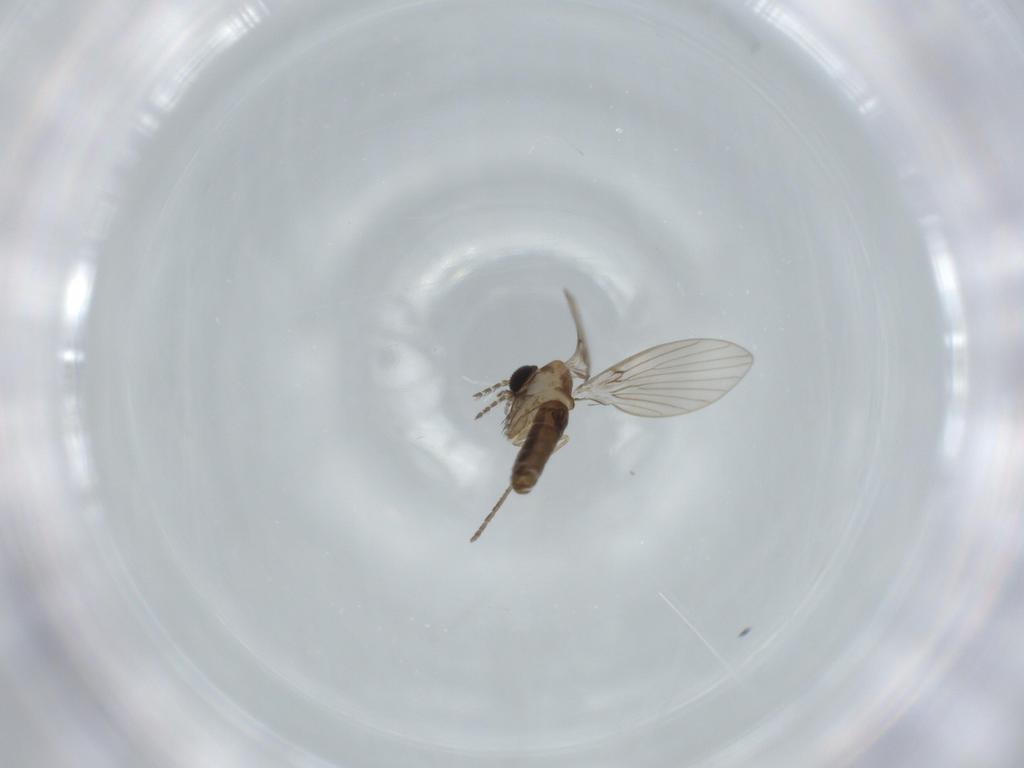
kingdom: Animalia
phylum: Arthropoda
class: Insecta
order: Diptera
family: Muscidae
